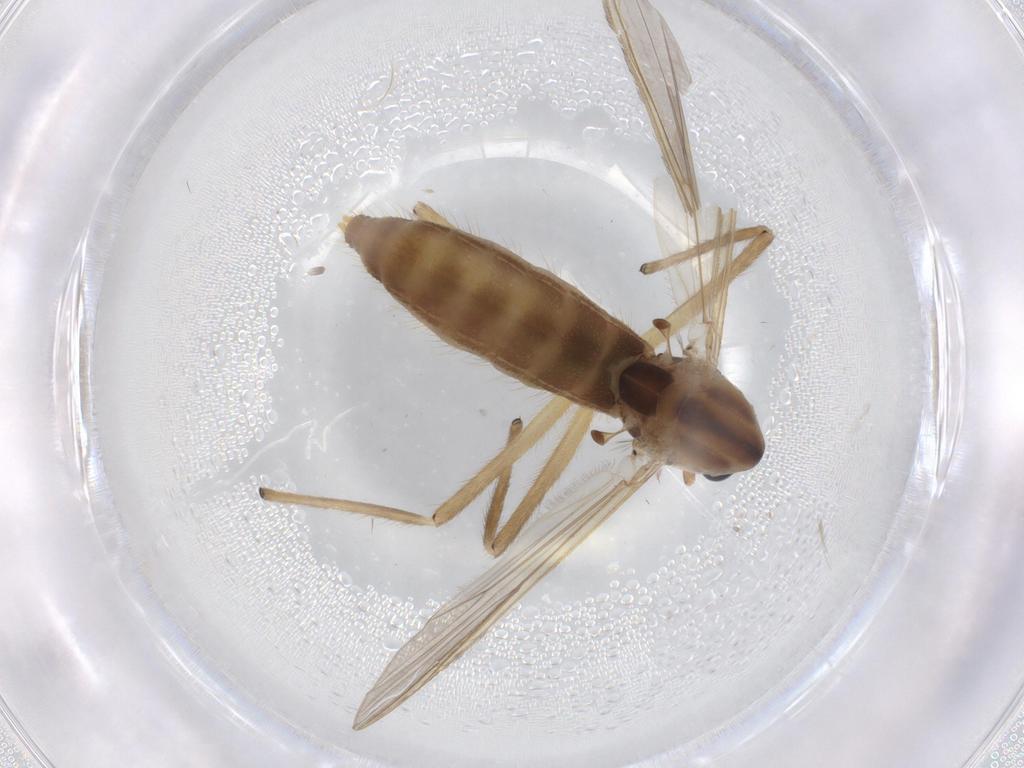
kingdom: Animalia
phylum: Arthropoda
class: Insecta
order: Diptera
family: Chironomidae
